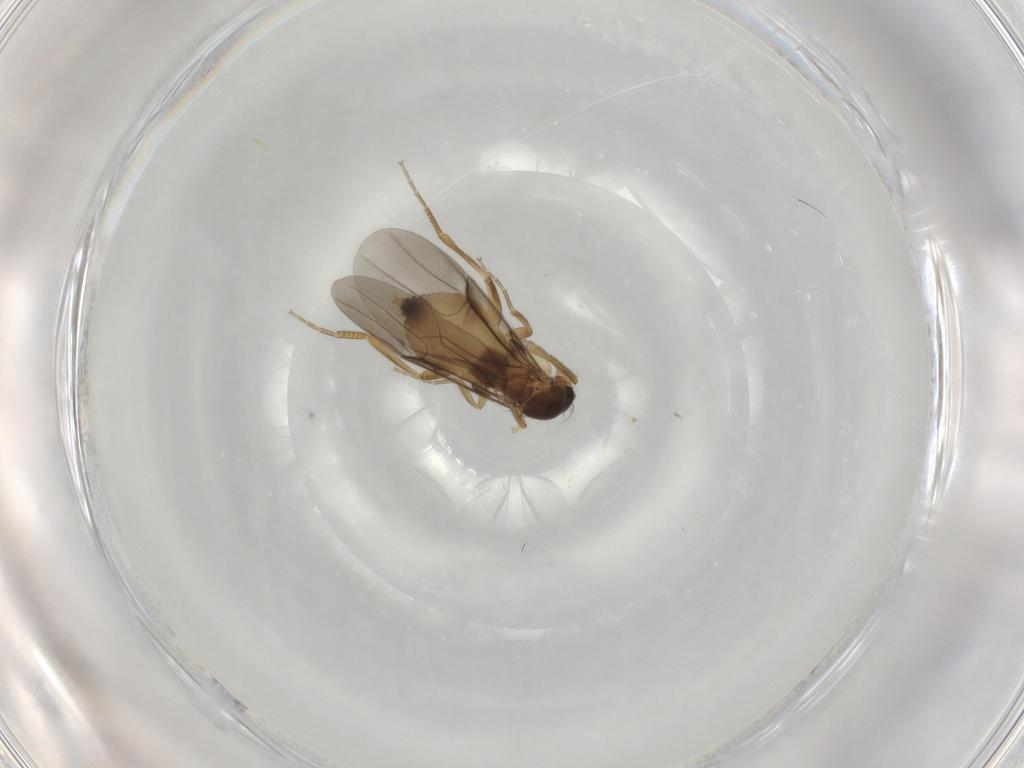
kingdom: Animalia
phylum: Arthropoda
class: Insecta
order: Diptera
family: Phoridae
